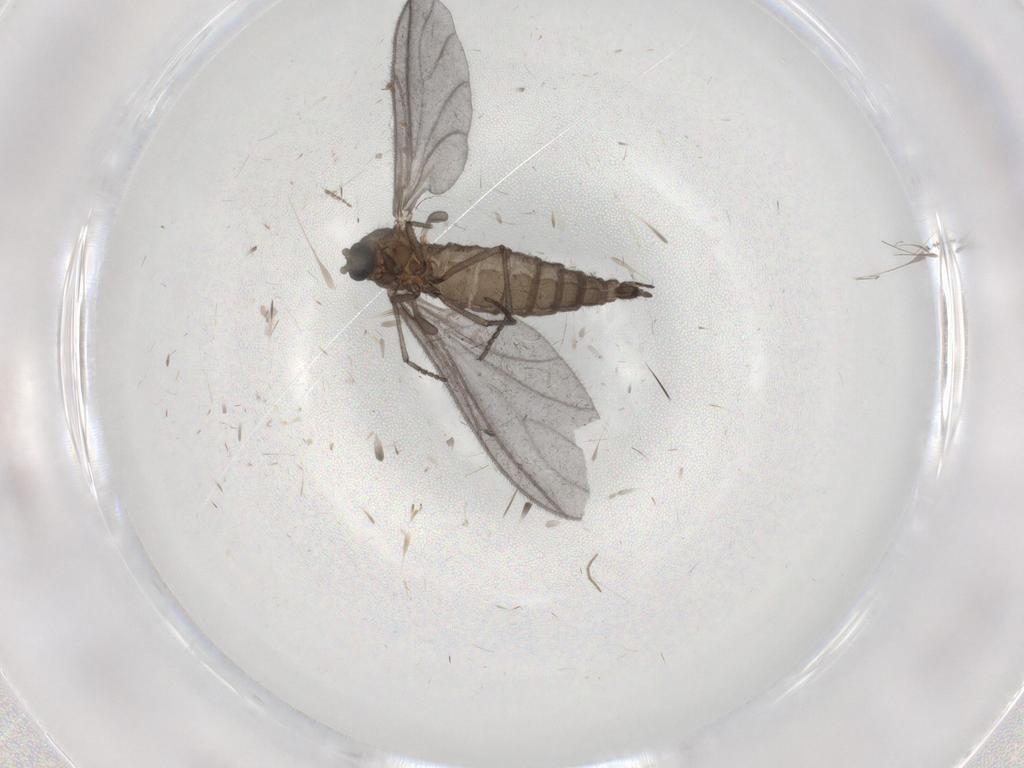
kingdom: Animalia
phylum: Arthropoda
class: Insecta
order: Diptera
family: Sciaridae
